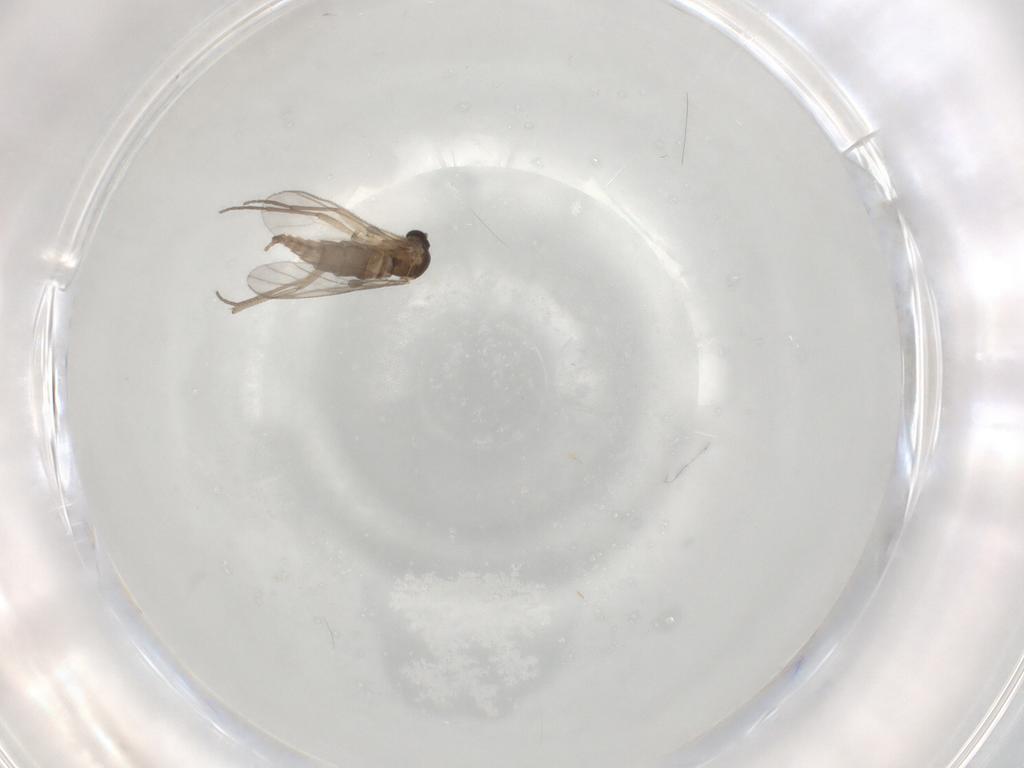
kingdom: Animalia
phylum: Arthropoda
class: Insecta
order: Diptera
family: Sciaridae
